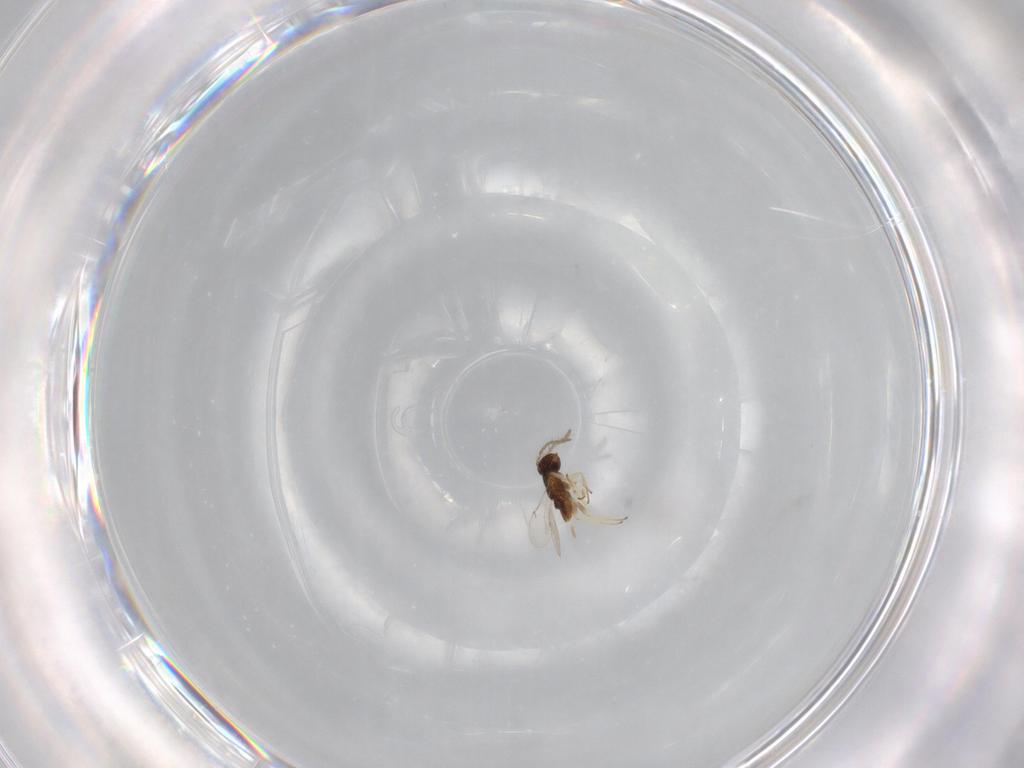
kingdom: Animalia
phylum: Arthropoda
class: Insecta
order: Hymenoptera
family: Encyrtidae
